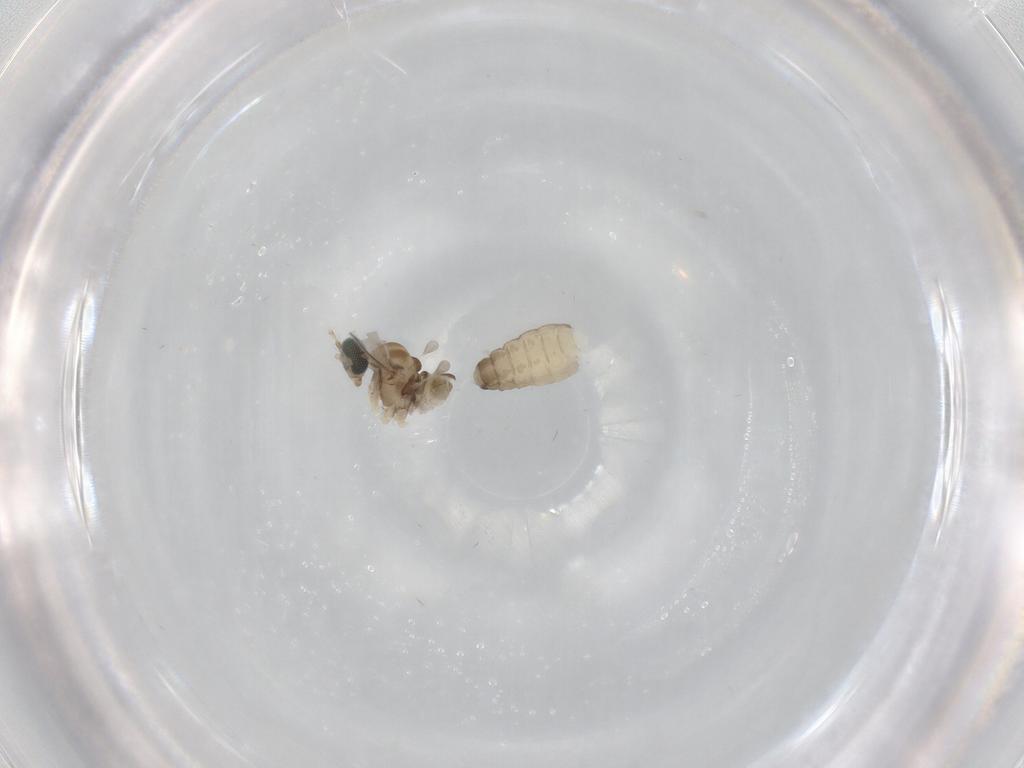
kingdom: Animalia
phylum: Arthropoda
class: Insecta
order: Diptera
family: Cecidomyiidae
